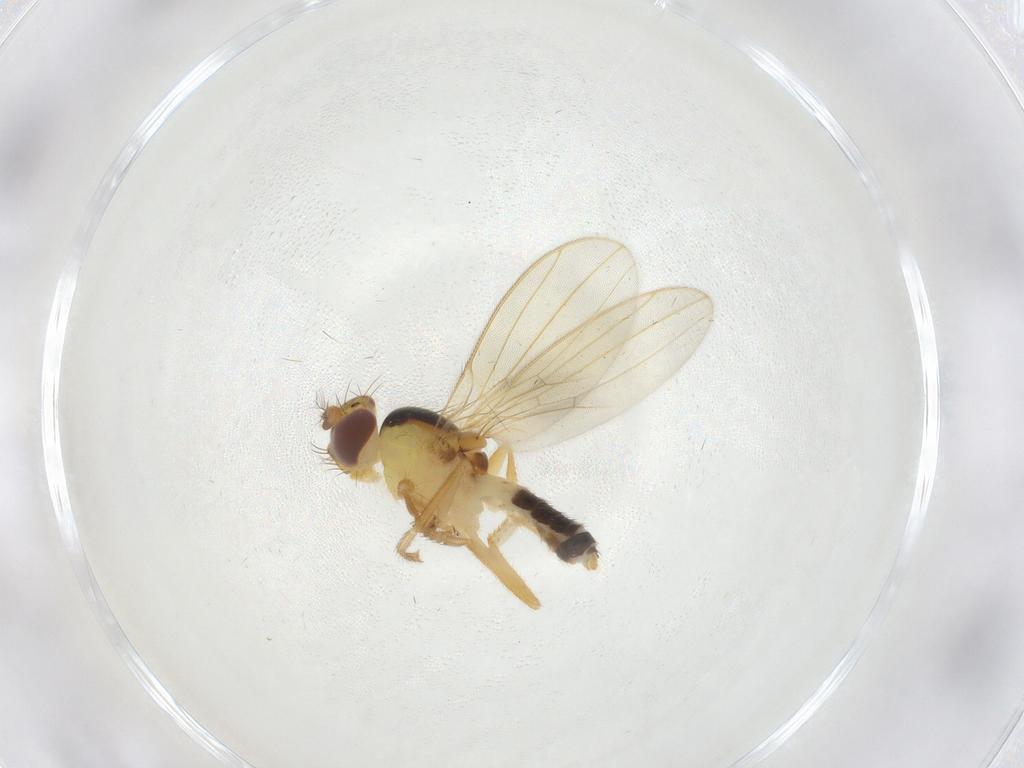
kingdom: Animalia
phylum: Arthropoda
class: Insecta
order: Diptera
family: Periscelididae
